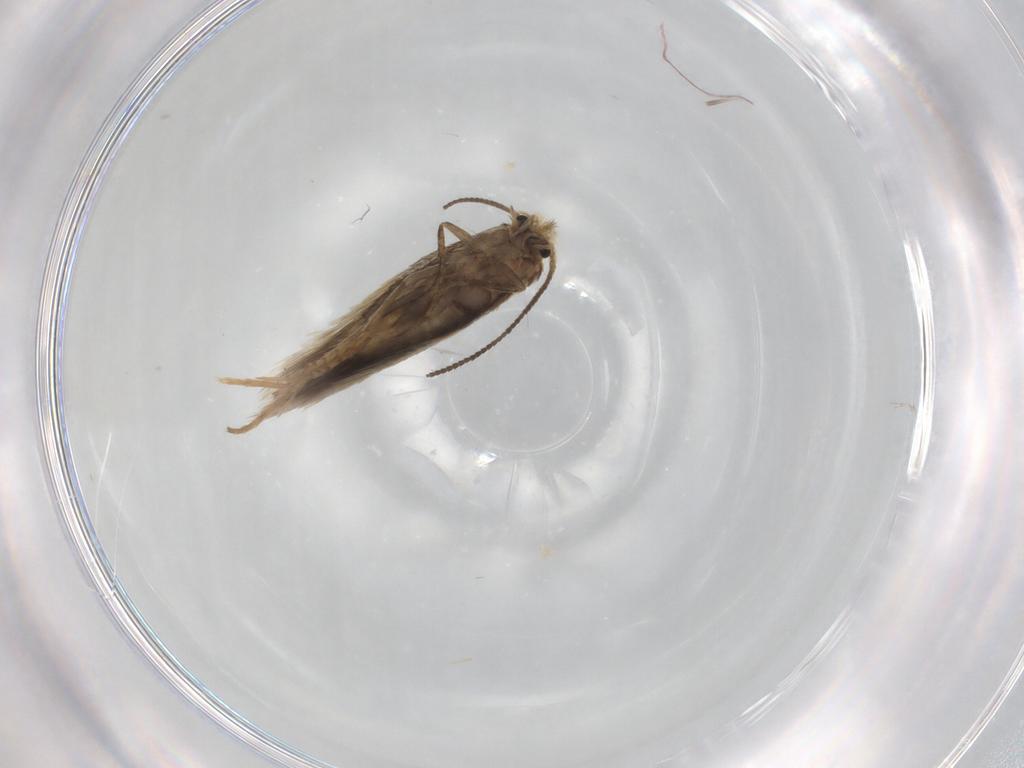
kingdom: Animalia
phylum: Arthropoda
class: Insecta
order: Lepidoptera
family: Nepticulidae
